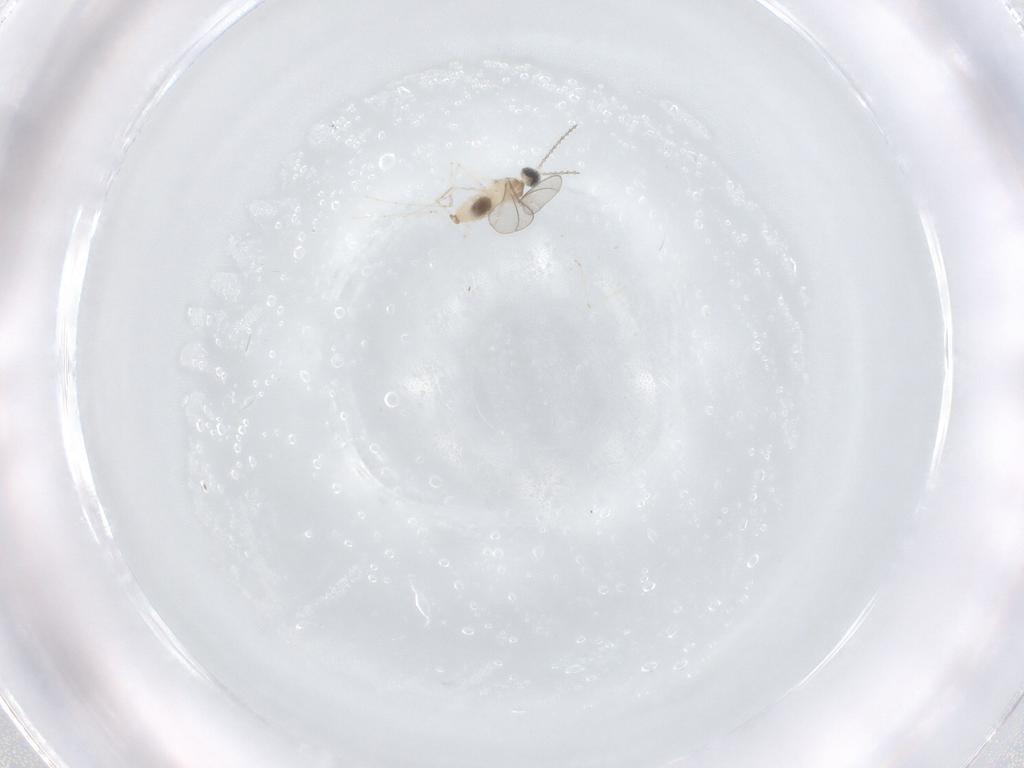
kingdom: Animalia
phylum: Arthropoda
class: Insecta
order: Diptera
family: Cecidomyiidae
